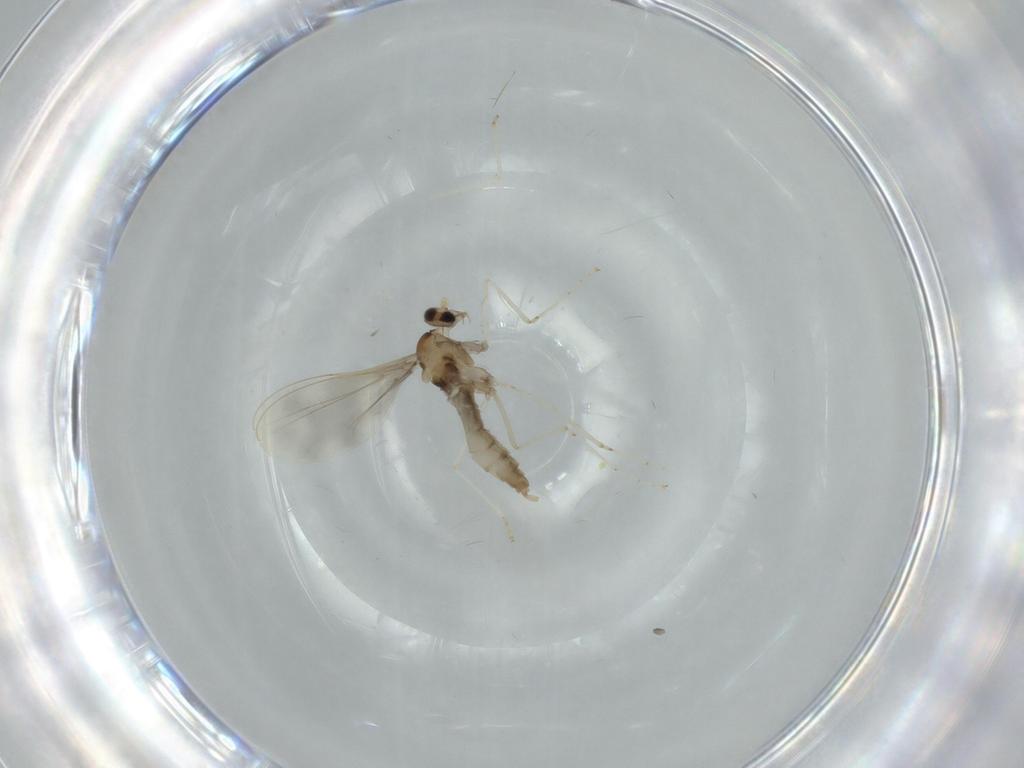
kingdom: Animalia
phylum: Arthropoda
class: Insecta
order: Diptera
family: Cecidomyiidae
